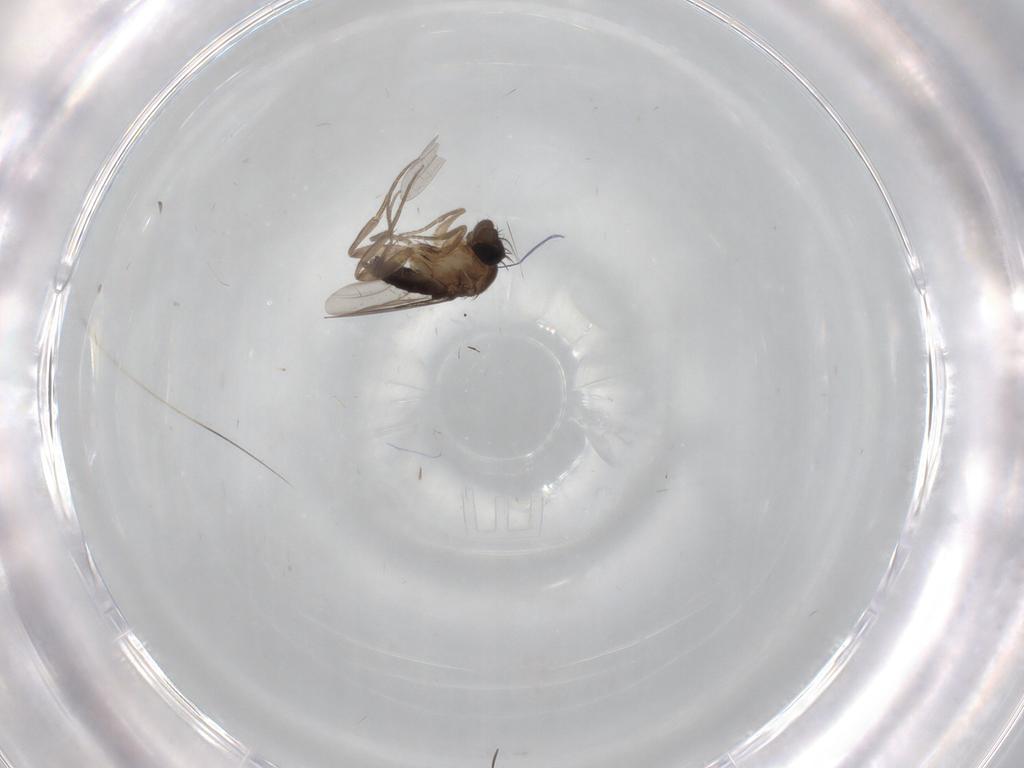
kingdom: Animalia
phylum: Arthropoda
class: Insecta
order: Diptera
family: Phoridae
